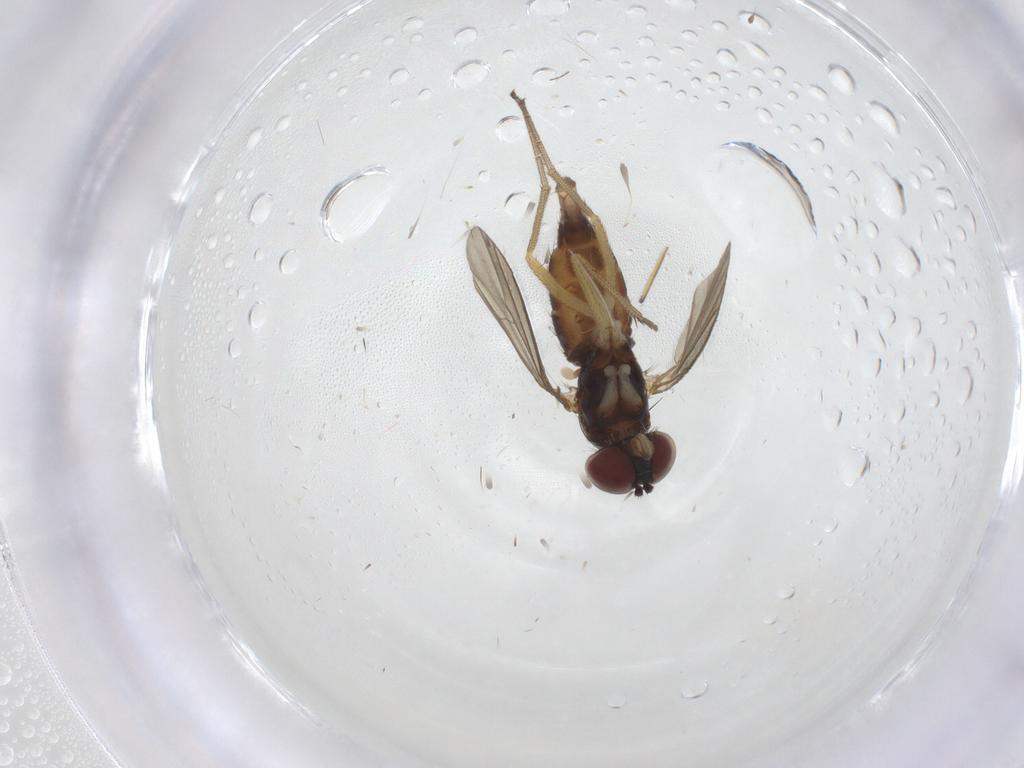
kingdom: Animalia
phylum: Arthropoda
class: Insecta
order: Diptera
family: Dolichopodidae
